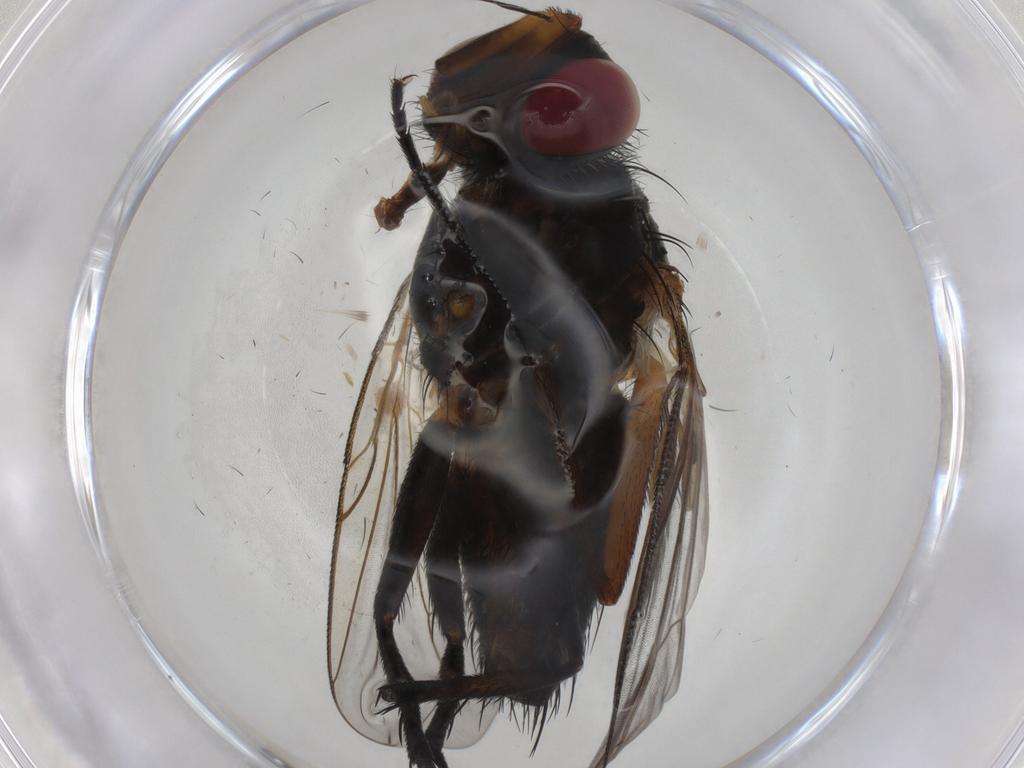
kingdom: Animalia
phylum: Arthropoda
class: Insecta
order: Diptera
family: Tachinidae
